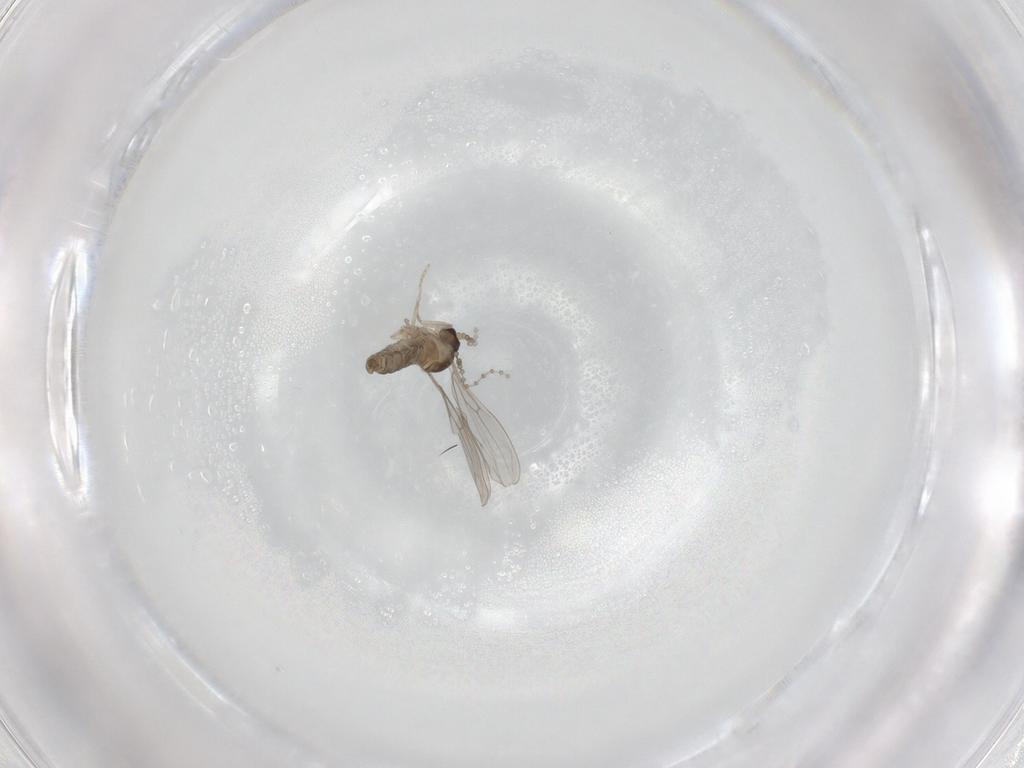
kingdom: Animalia
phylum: Arthropoda
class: Insecta
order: Diptera
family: Cecidomyiidae
